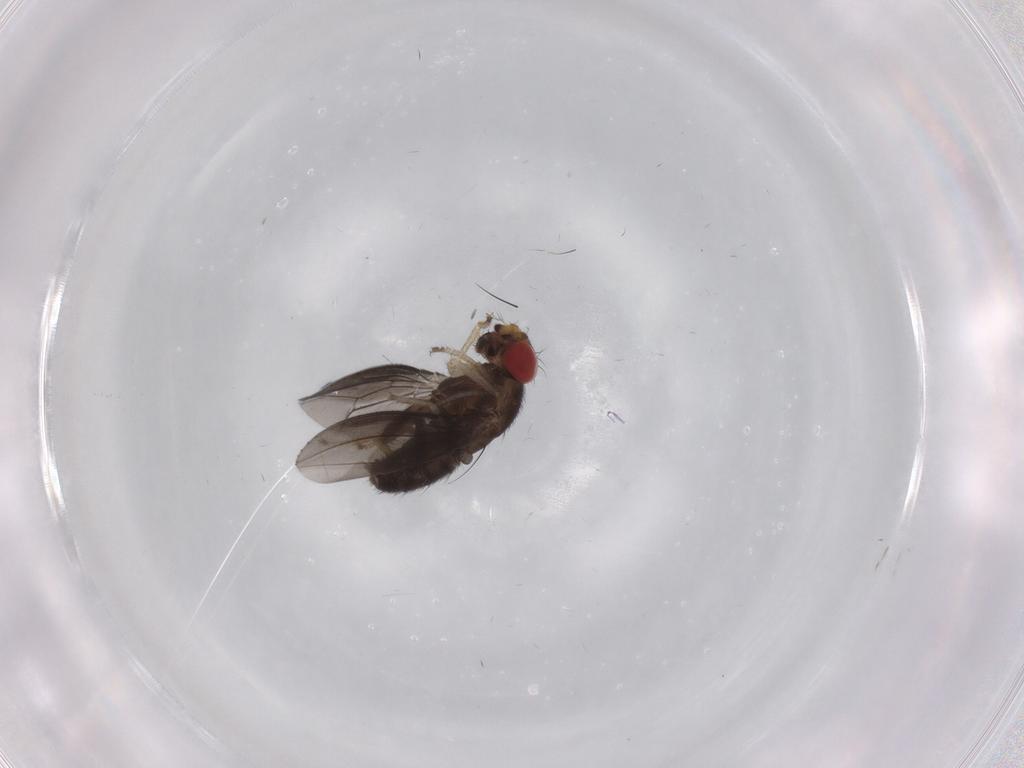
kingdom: Animalia
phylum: Arthropoda
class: Insecta
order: Diptera
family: Drosophilidae
